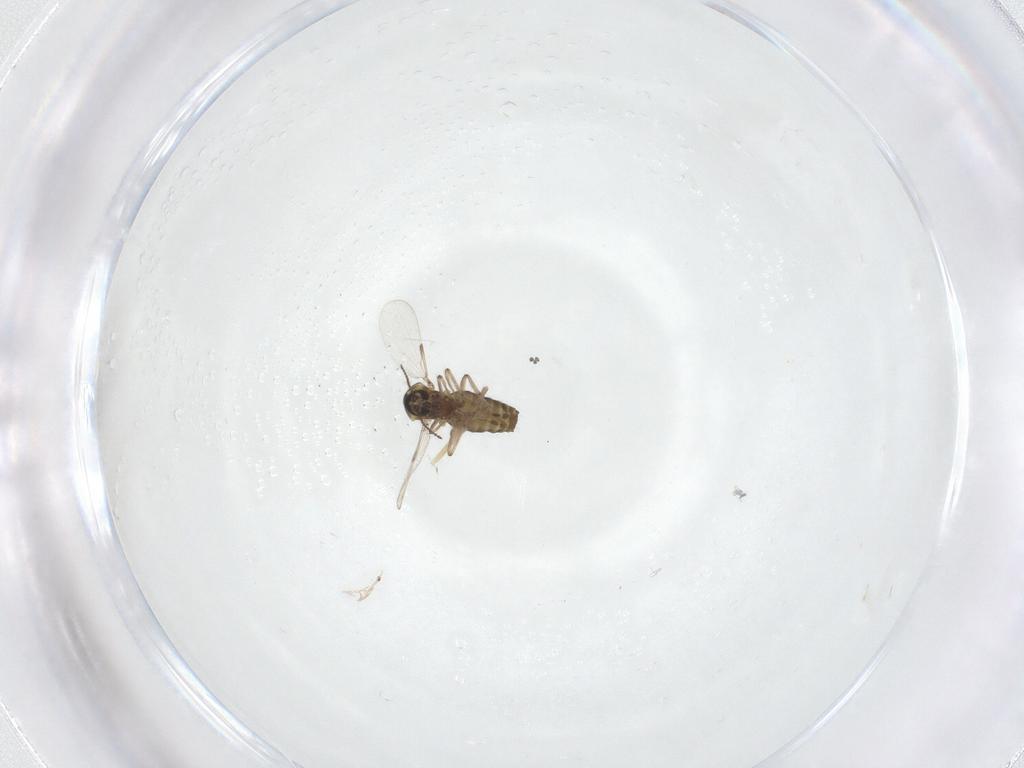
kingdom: Animalia
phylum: Arthropoda
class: Insecta
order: Diptera
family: Ceratopogonidae
